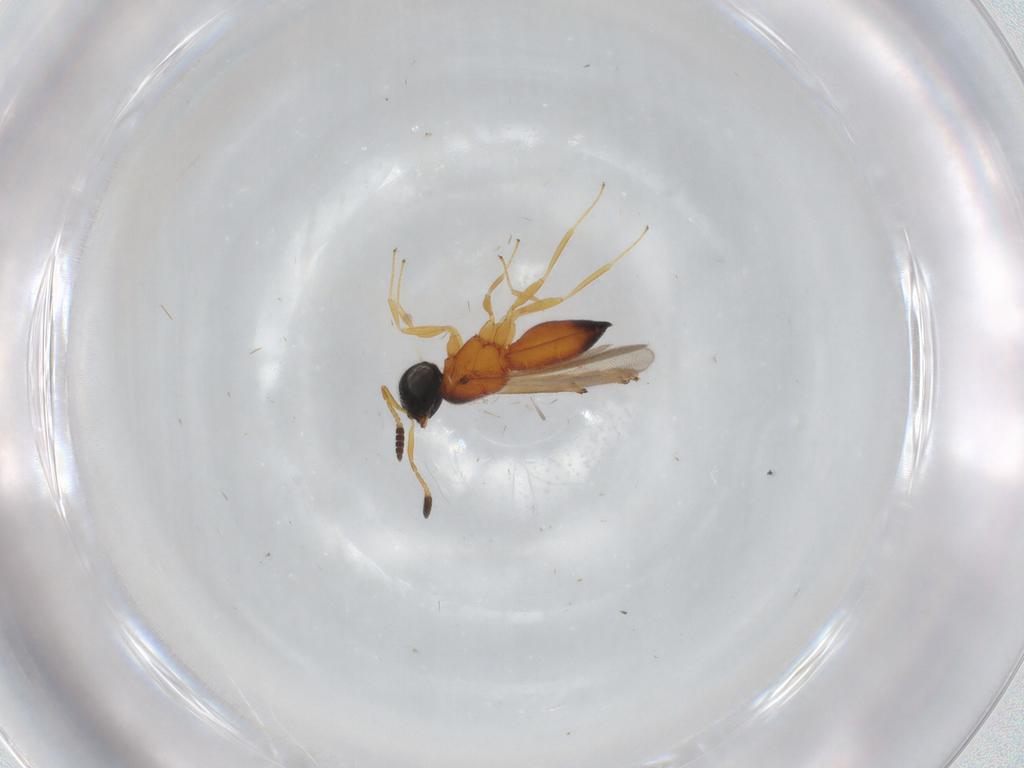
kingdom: Animalia
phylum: Arthropoda
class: Insecta
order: Hymenoptera
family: Scelionidae
